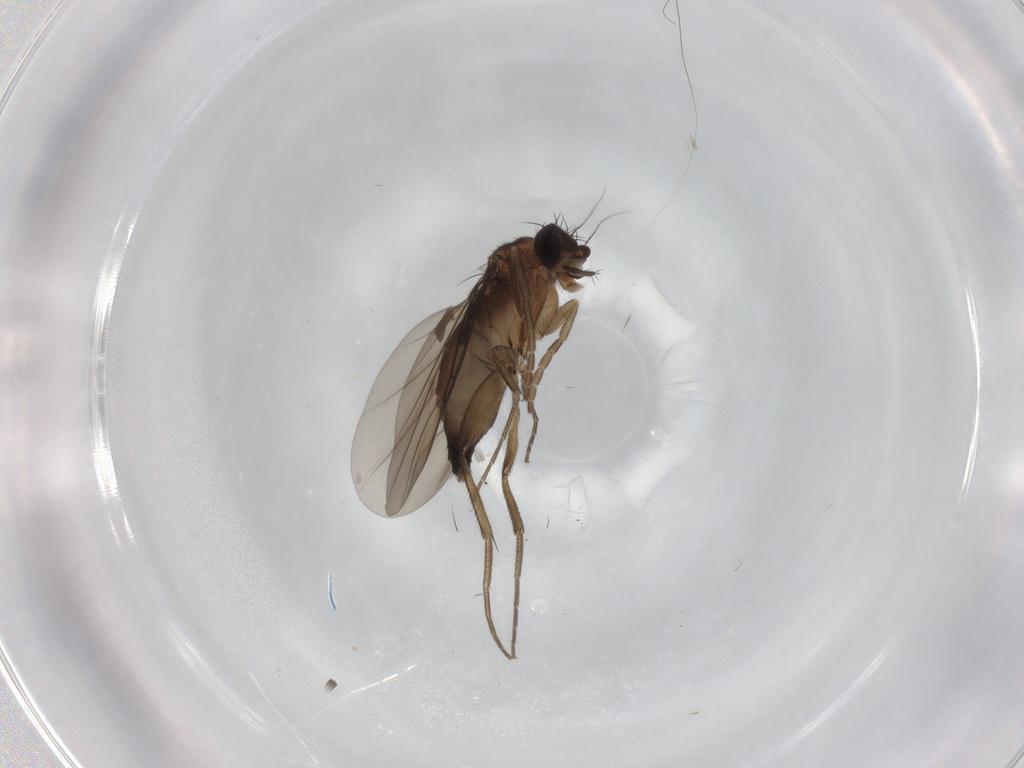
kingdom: Animalia
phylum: Arthropoda
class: Insecta
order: Diptera
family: Phoridae
